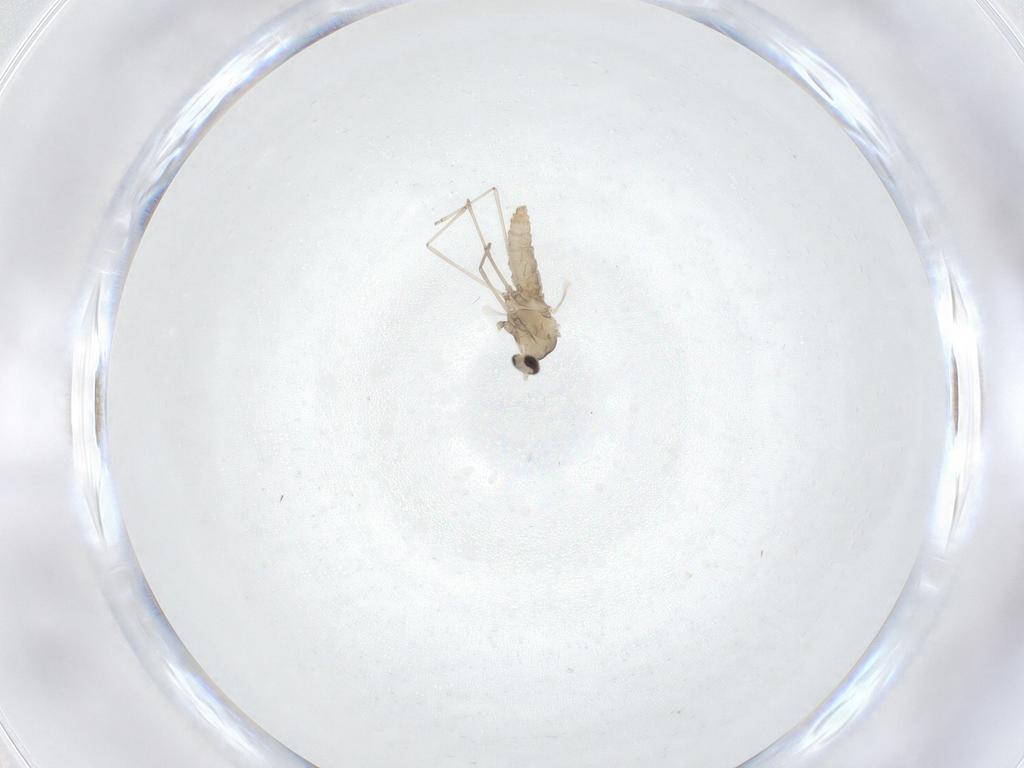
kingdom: Animalia
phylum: Arthropoda
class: Insecta
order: Diptera
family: Cecidomyiidae
